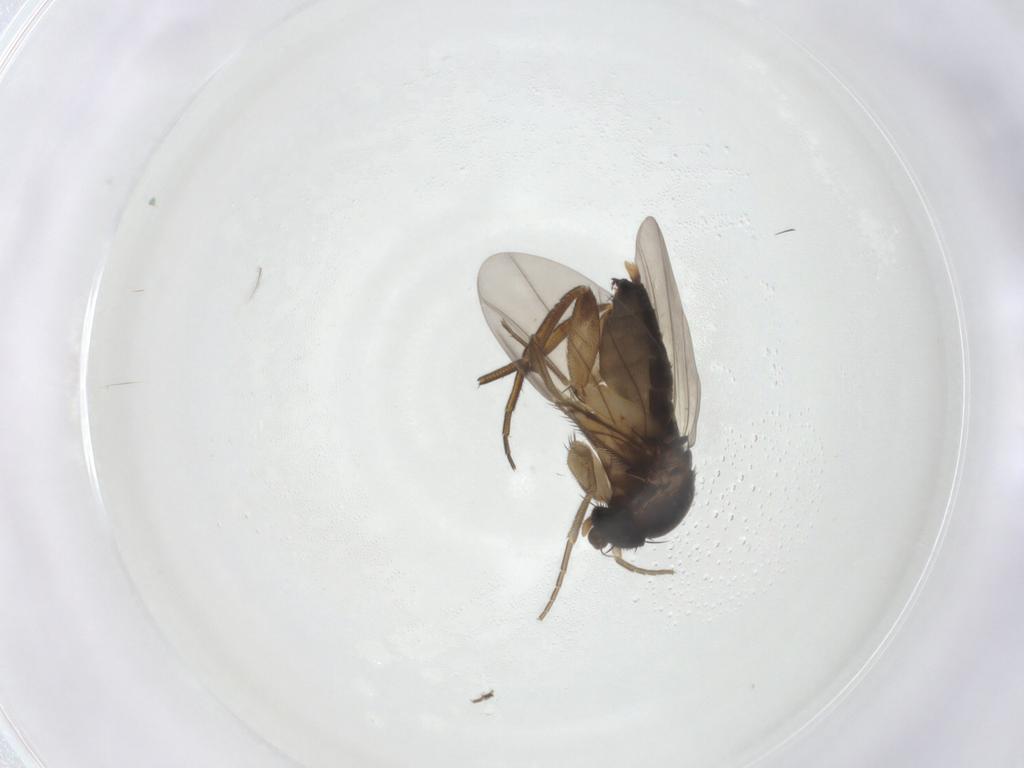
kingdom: Animalia
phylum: Arthropoda
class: Insecta
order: Diptera
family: Phoridae
